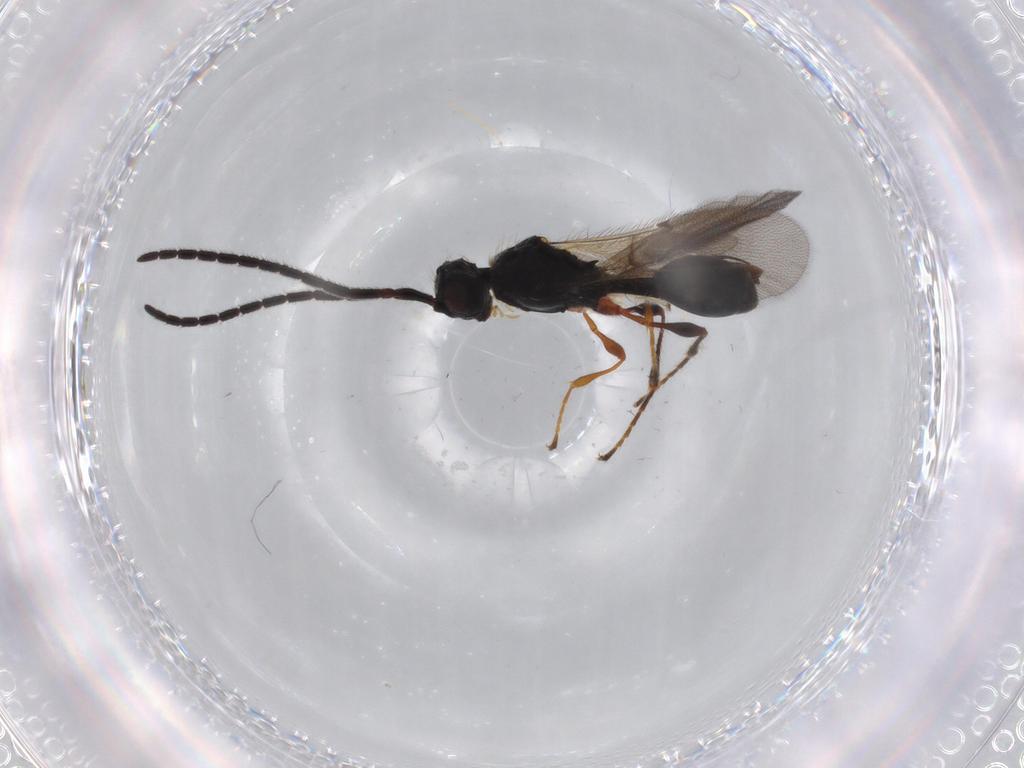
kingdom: Animalia
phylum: Arthropoda
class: Insecta
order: Hymenoptera
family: Diapriidae
